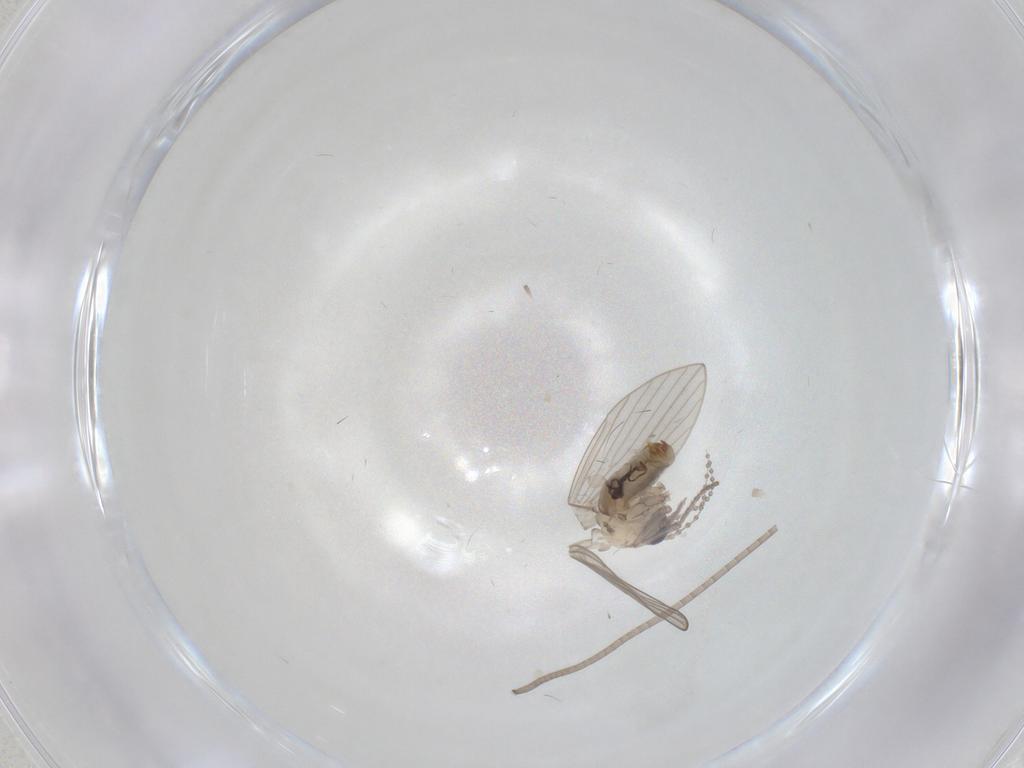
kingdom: Animalia
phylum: Arthropoda
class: Insecta
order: Diptera
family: Psychodidae
